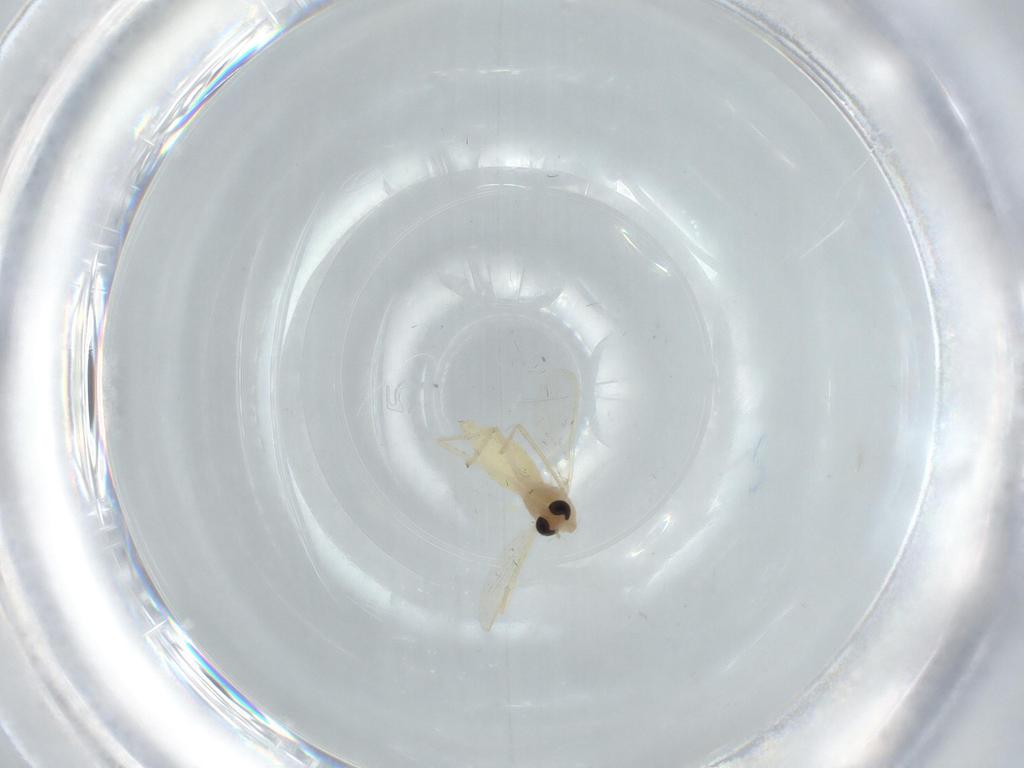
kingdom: Animalia
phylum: Arthropoda
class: Insecta
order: Diptera
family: Chironomidae
